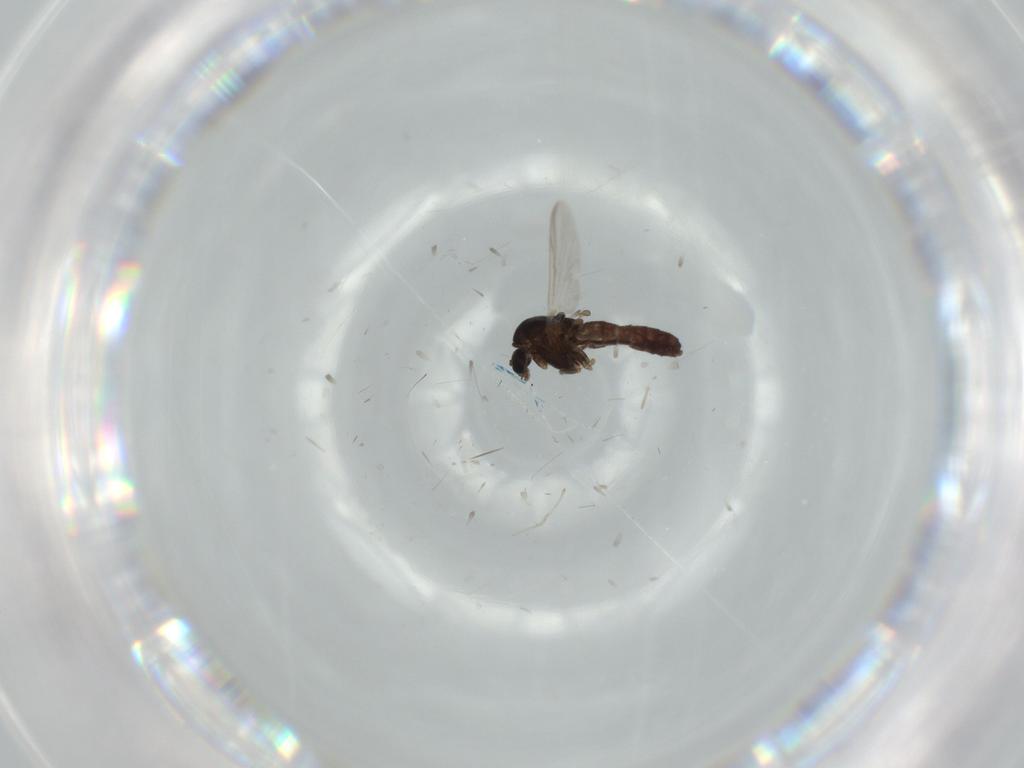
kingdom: Animalia
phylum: Arthropoda
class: Insecta
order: Diptera
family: Chironomidae
